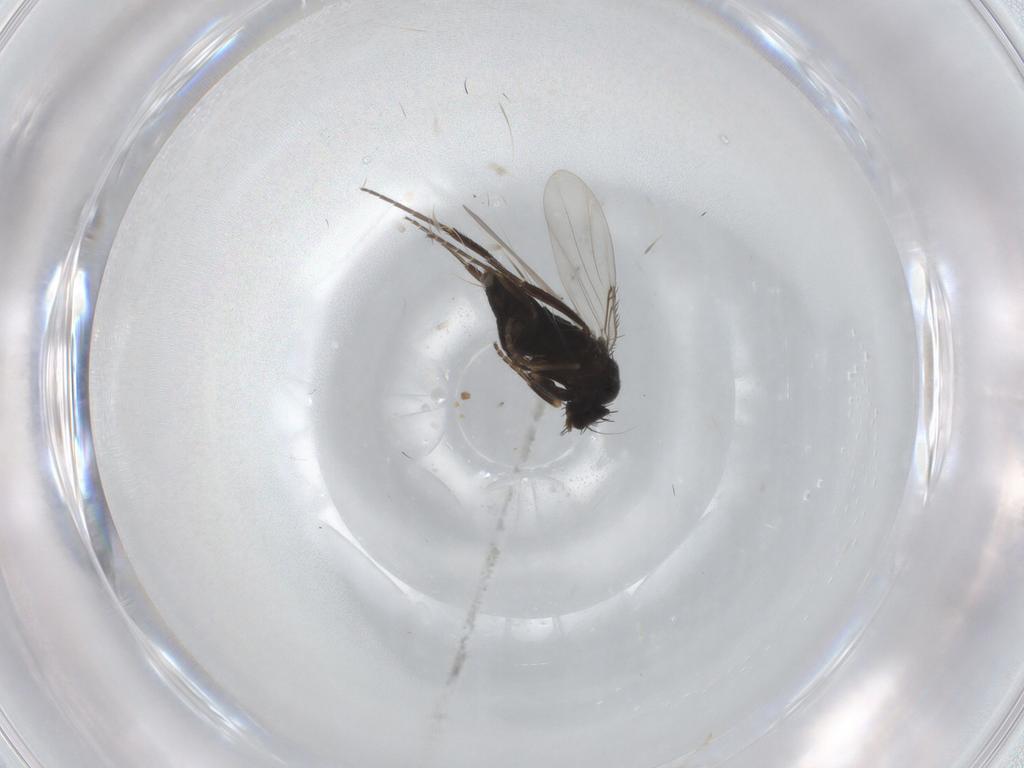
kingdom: Animalia
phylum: Arthropoda
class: Insecta
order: Diptera
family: Phoridae
